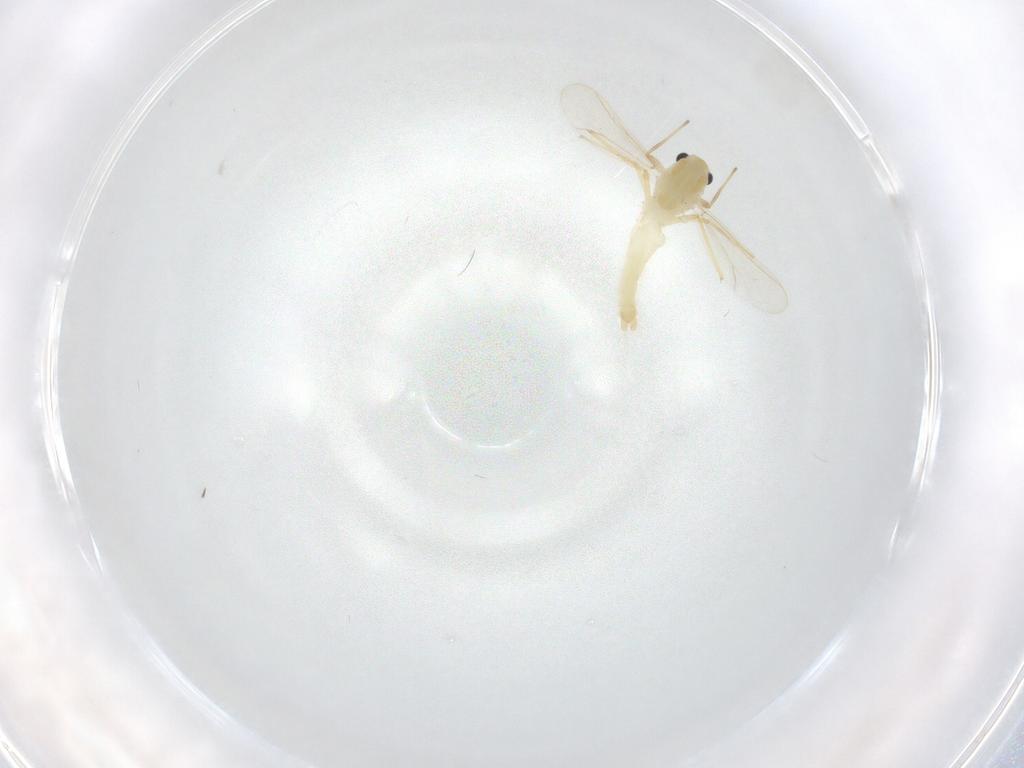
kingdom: Animalia
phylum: Arthropoda
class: Insecta
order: Diptera
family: Chironomidae
